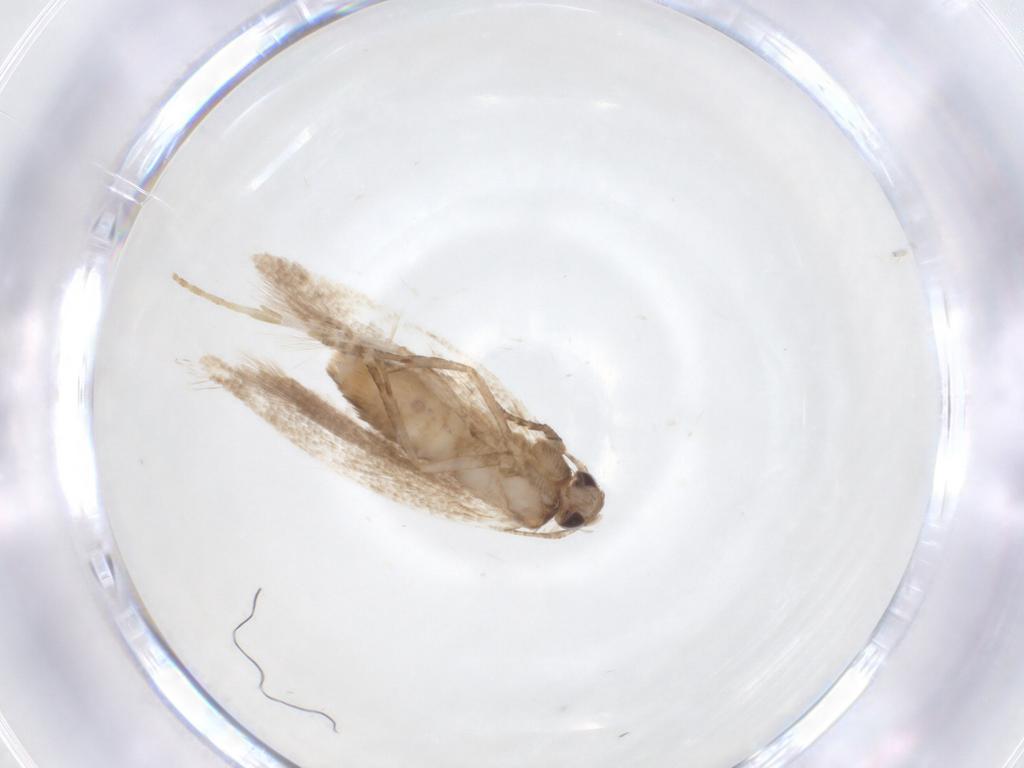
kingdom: Animalia
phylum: Arthropoda
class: Insecta
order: Lepidoptera
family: Gelechiidae
